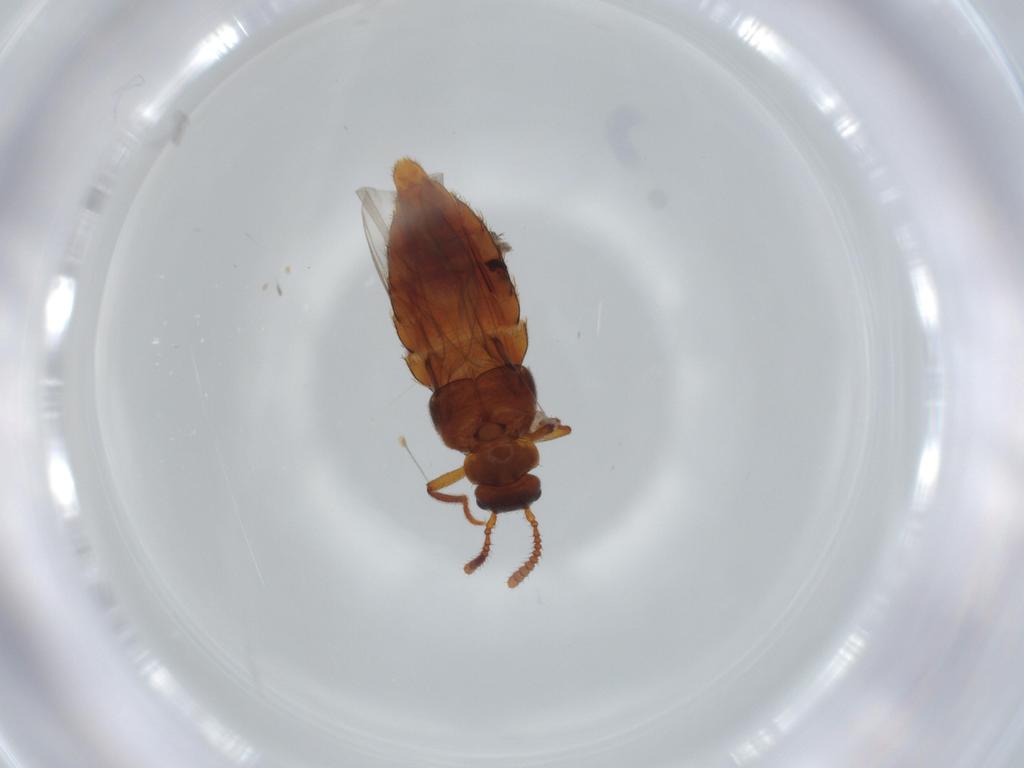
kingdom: Animalia
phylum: Arthropoda
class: Insecta
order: Coleoptera
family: Staphylinidae
